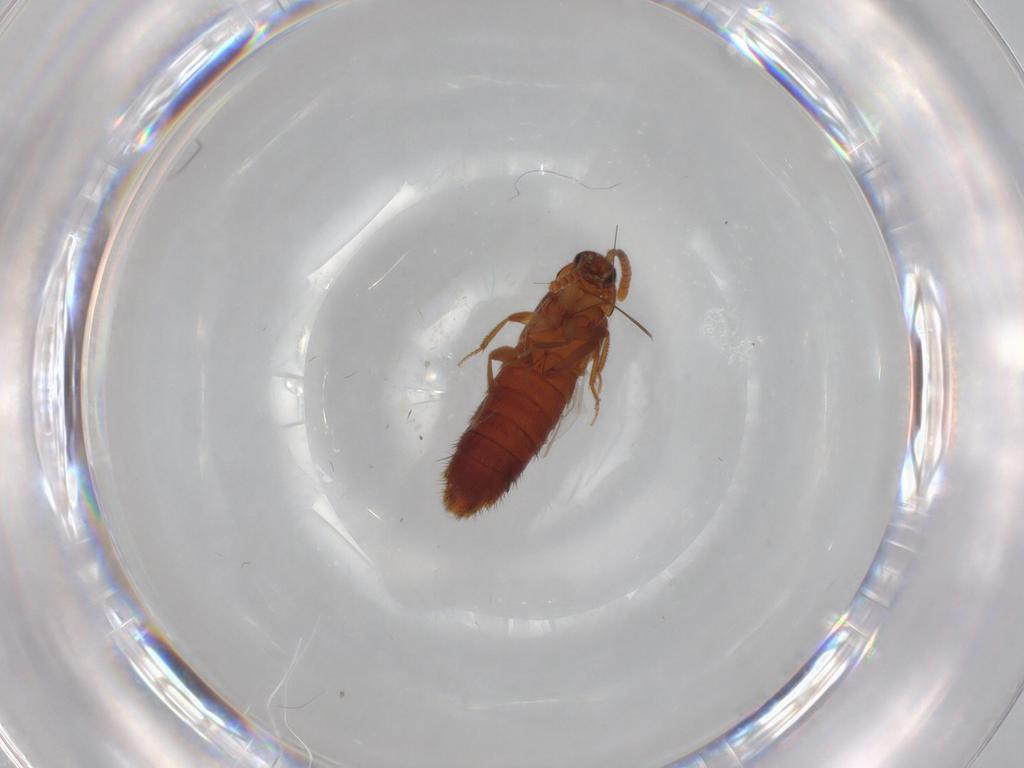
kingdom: Animalia
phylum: Arthropoda
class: Insecta
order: Coleoptera
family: Staphylinidae
